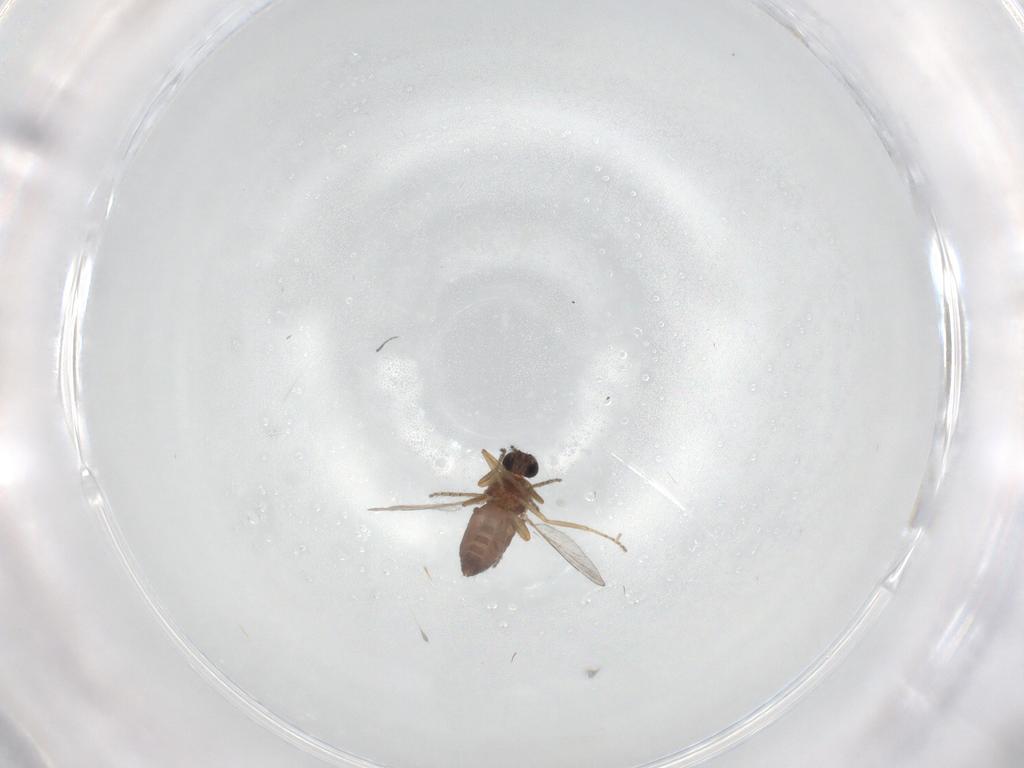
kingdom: Animalia
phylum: Arthropoda
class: Insecta
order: Diptera
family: Ceratopogonidae
